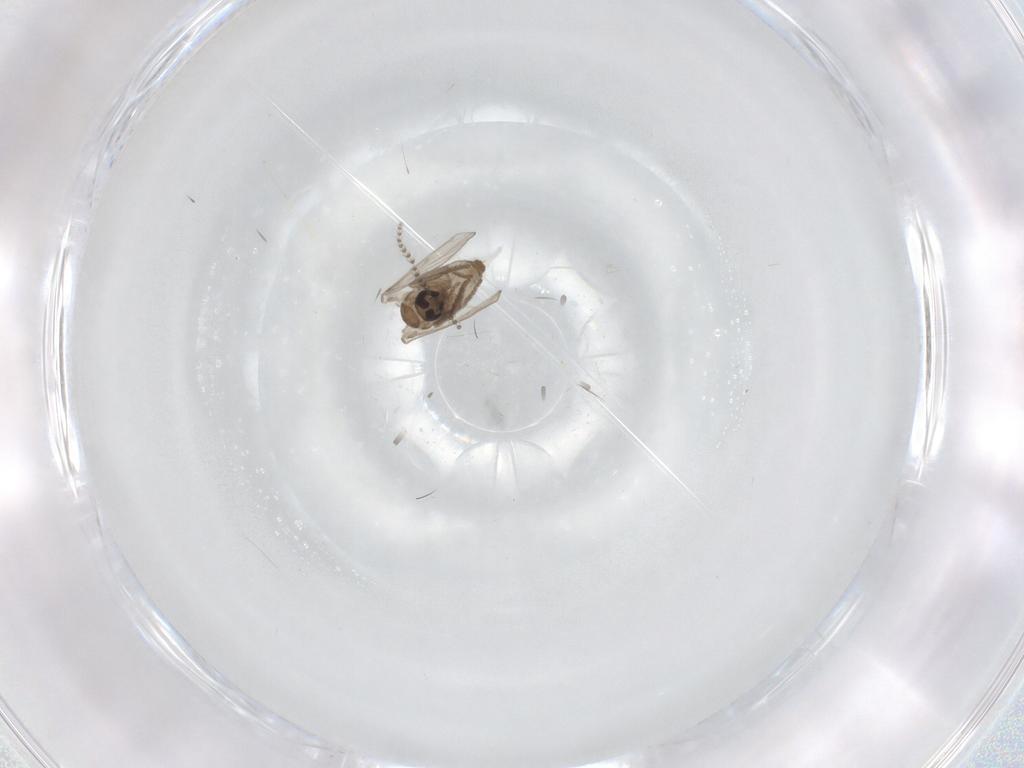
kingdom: Animalia
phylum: Arthropoda
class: Insecta
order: Diptera
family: Psychodidae
